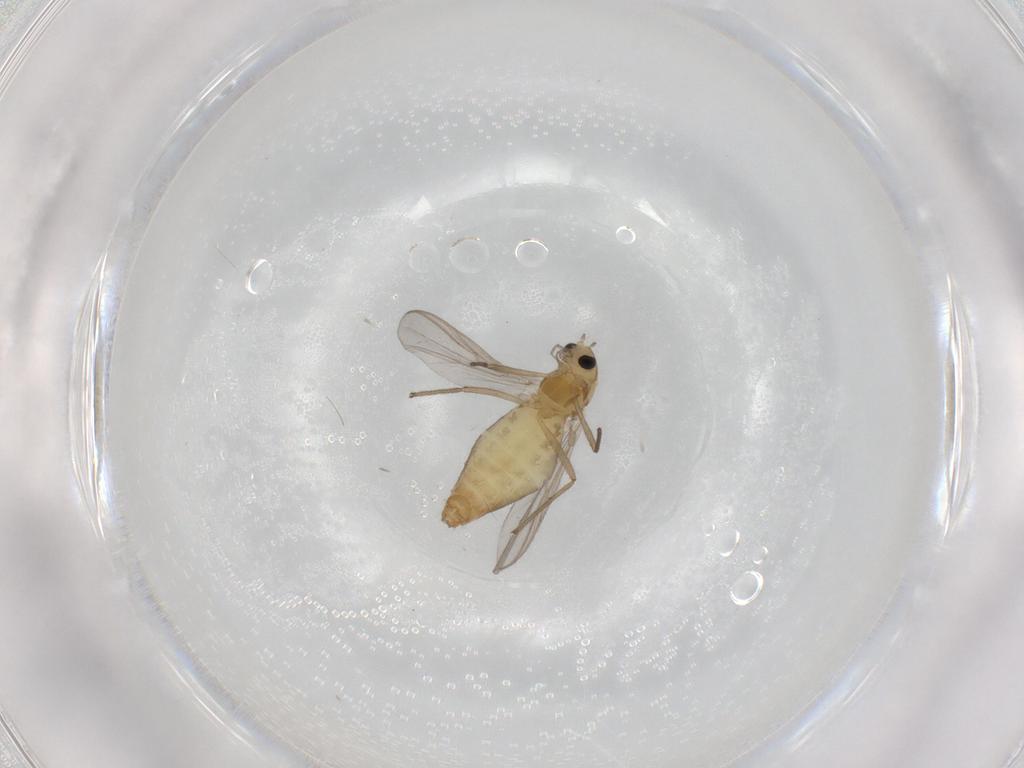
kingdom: Animalia
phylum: Arthropoda
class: Insecta
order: Diptera
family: Chironomidae
